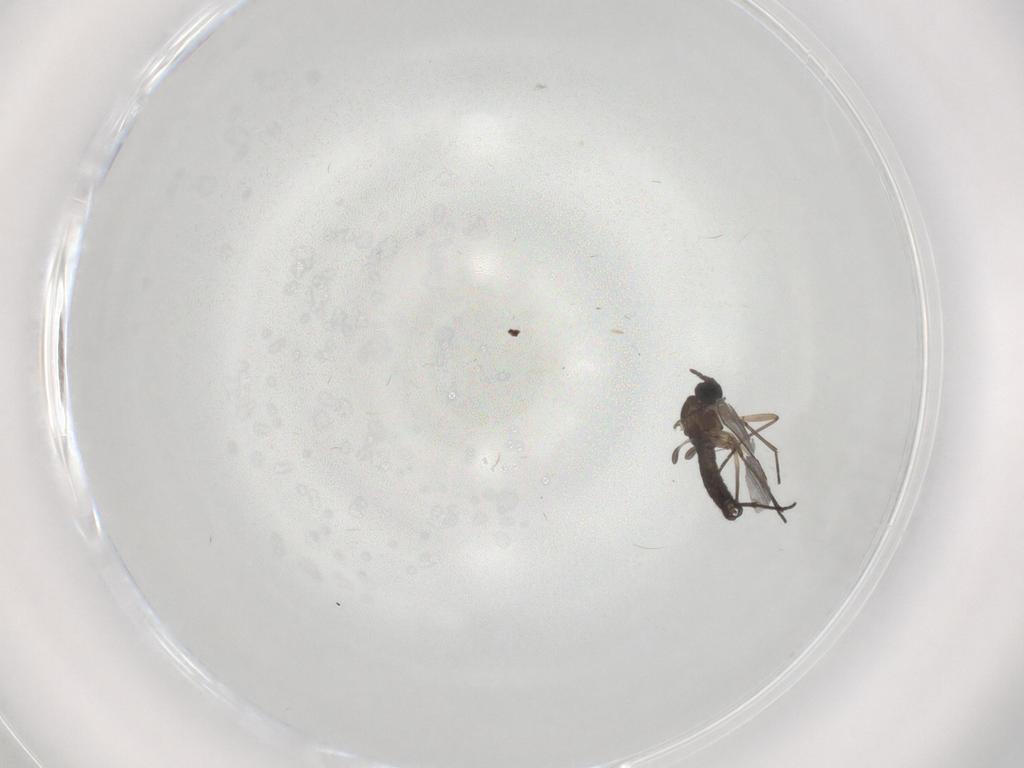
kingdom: Animalia
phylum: Arthropoda
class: Insecta
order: Diptera
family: Sciaridae
